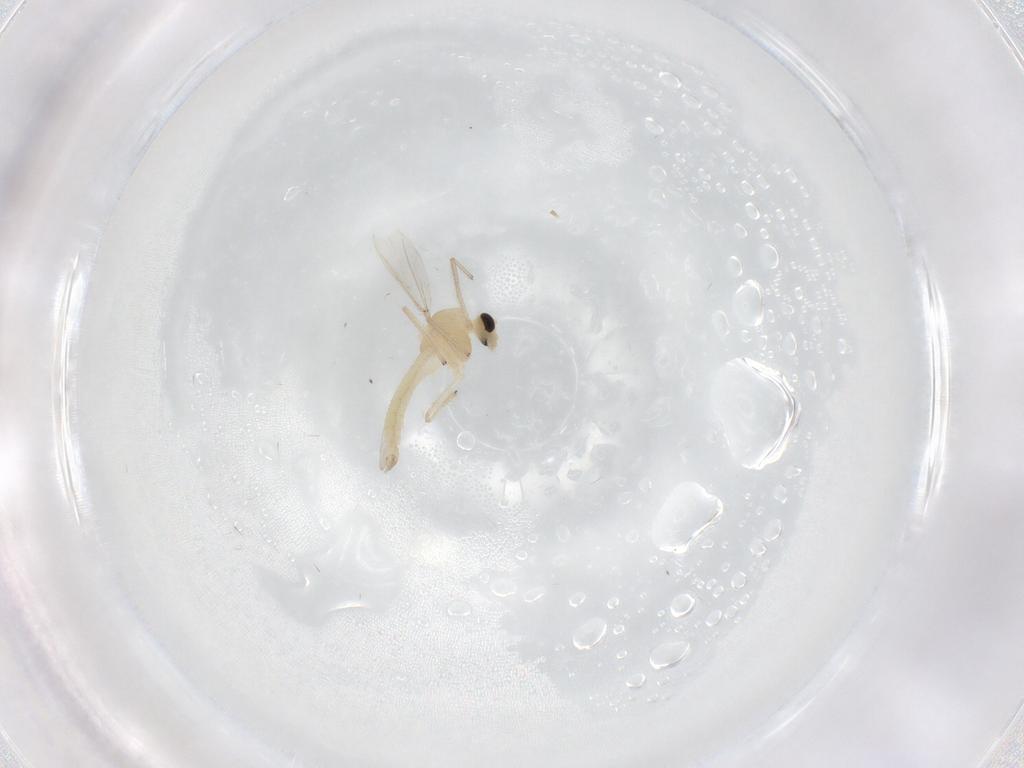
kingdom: Animalia
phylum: Arthropoda
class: Insecta
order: Diptera
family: Chironomidae
